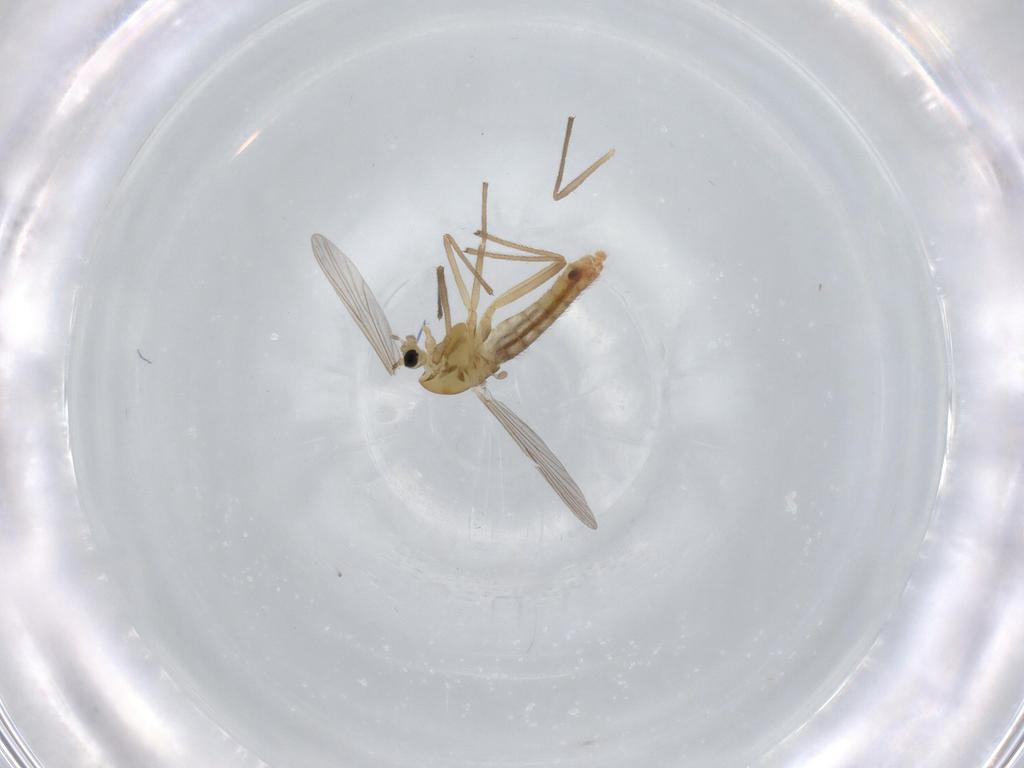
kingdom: Animalia
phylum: Arthropoda
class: Insecta
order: Diptera
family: Chironomidae
